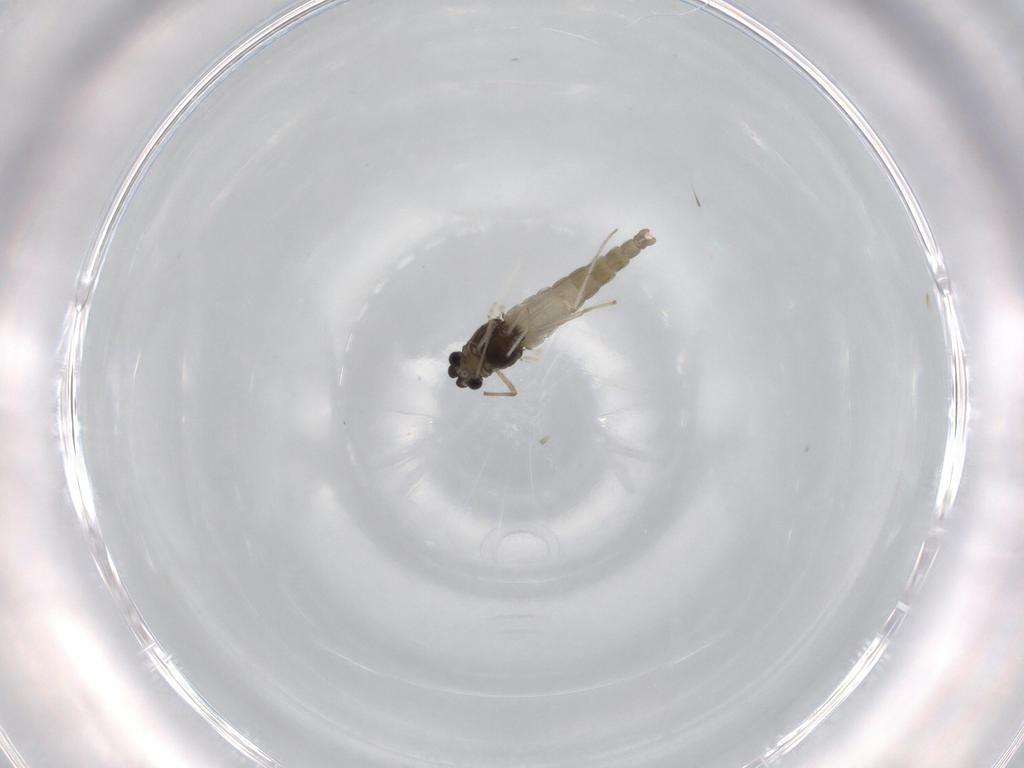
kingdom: Animalia
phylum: Arthropoda
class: Insecta
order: Diptera
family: Chironomidae
